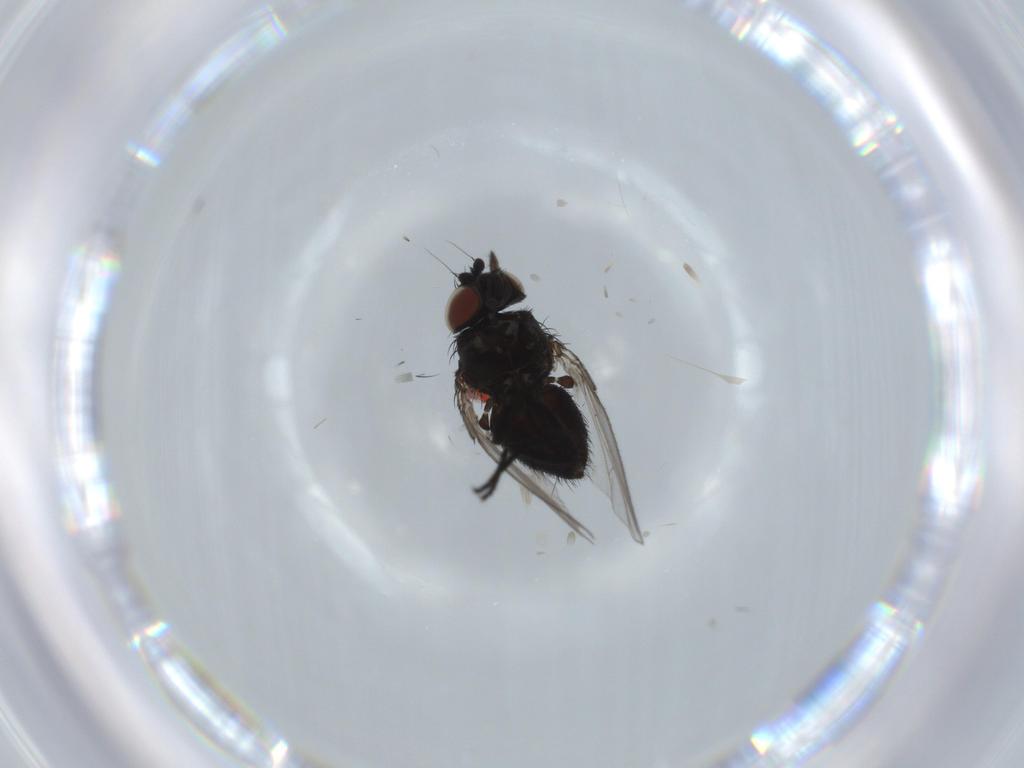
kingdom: Animalia
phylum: Arthropoda
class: Insecta
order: Diptera
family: Milichiidae
